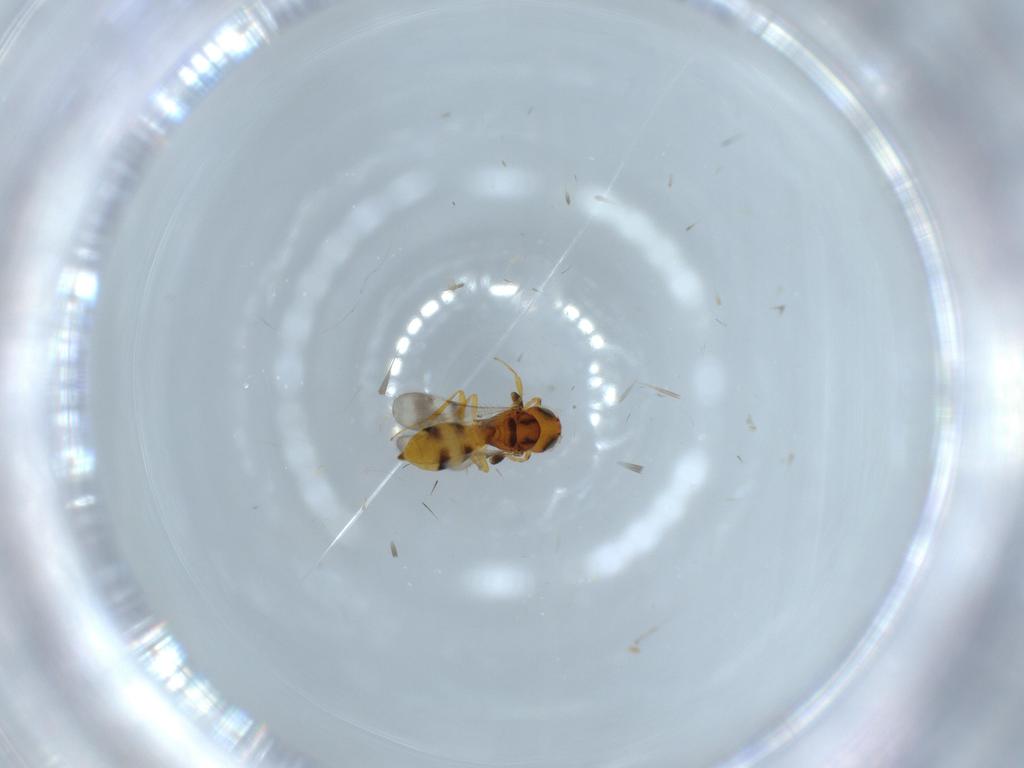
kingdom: Animalia
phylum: Arthropoda
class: Insecta
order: Hymenoptera
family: Scelionidae
